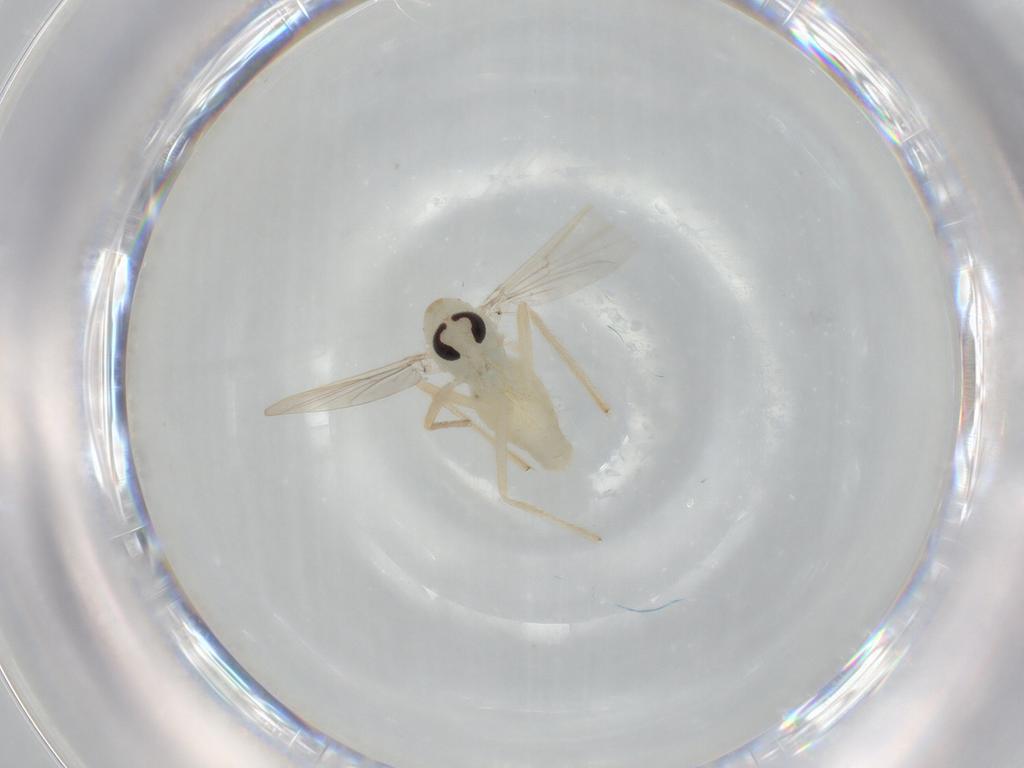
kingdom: Animalia
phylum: Arthropoda
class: Insecta
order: Diptera
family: Chironomidae
